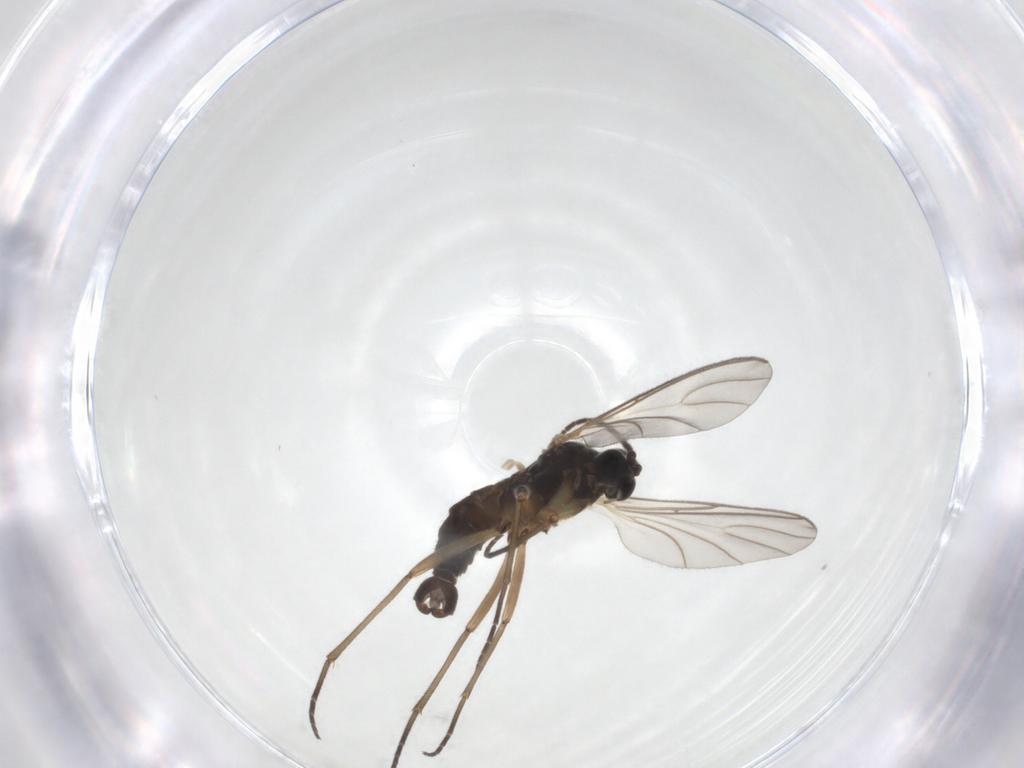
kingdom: Animalia
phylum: Arthropoda
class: Insecta
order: Diptera
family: Sciaridae
